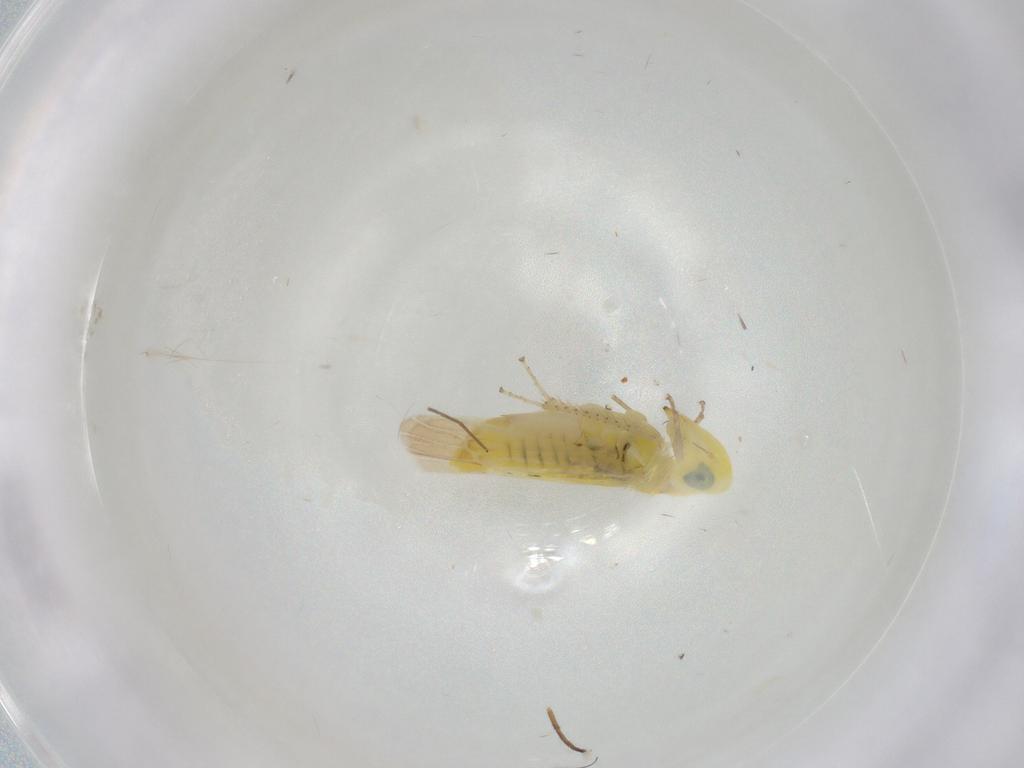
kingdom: Animalia
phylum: Arthropoda
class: Insecta
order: Hemiptera
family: Cicadellidae
